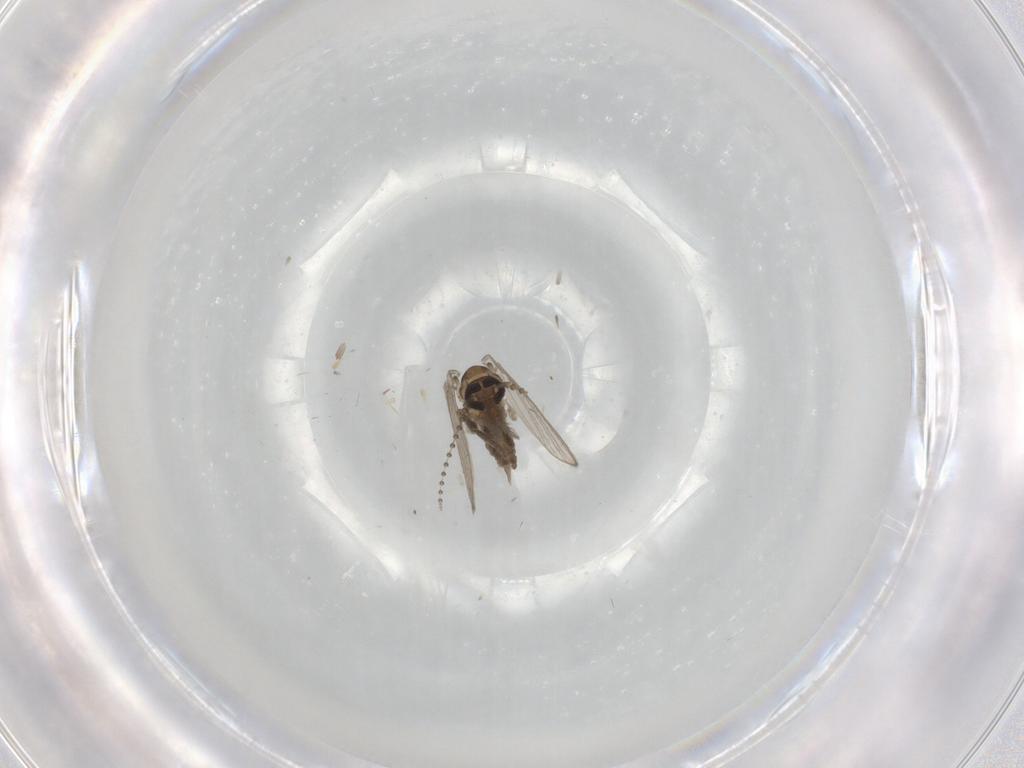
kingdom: Animalia
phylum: Arthropoda
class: Insecta
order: Diptera
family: Psychodidae
